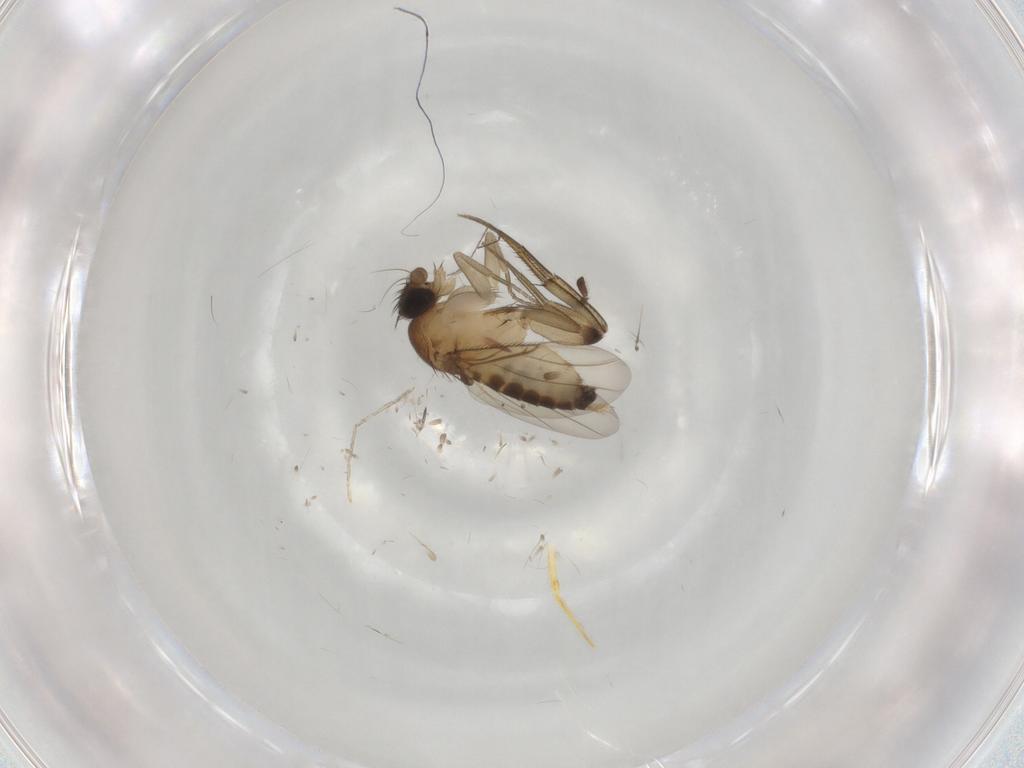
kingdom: Animalia
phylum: Arthropoda
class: Insecta
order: Diptera
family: Phoridae
